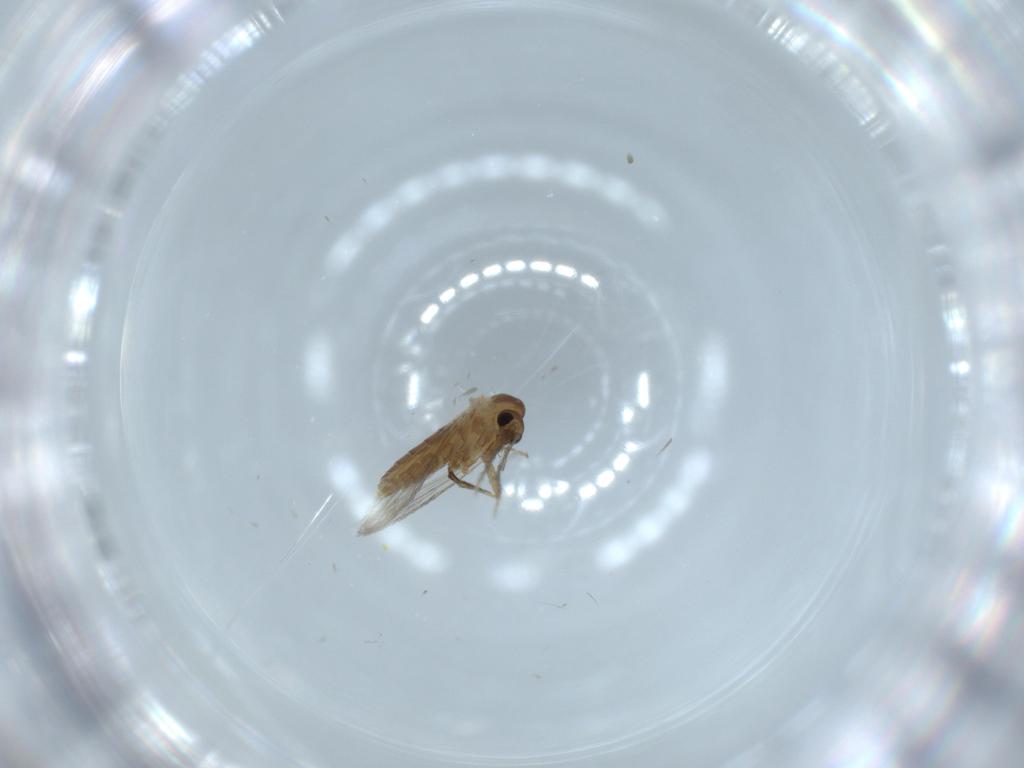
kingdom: Animalia
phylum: Arthropoda
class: Insecta
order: Diptera
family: Psychodidae
